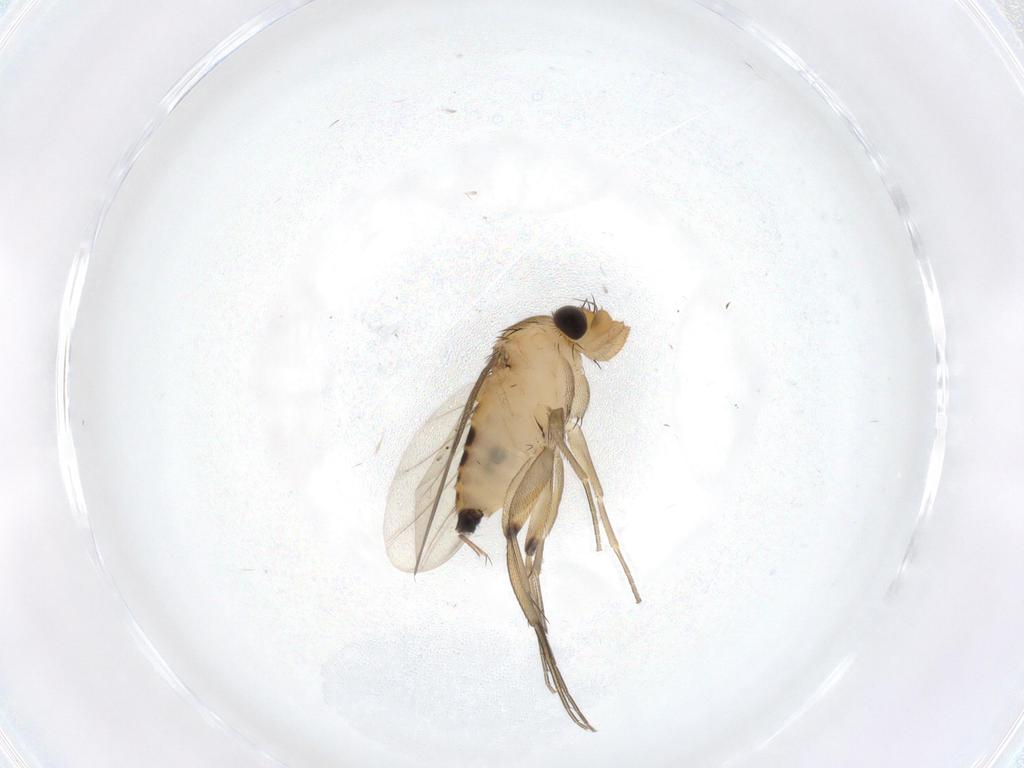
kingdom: Animalia
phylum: Arthropoda
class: Insecta
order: Diptera
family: Phoridae
